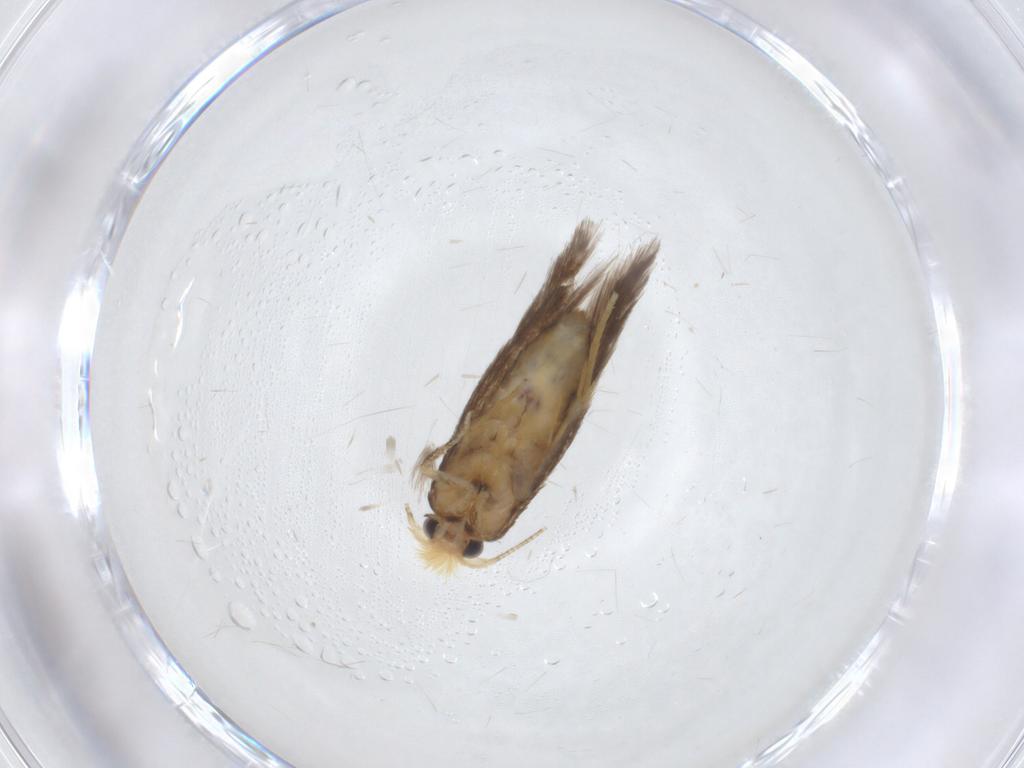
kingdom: Animalia
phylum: Arthropoda
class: Insecta
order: Lepidoptera
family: Nepticulidae
